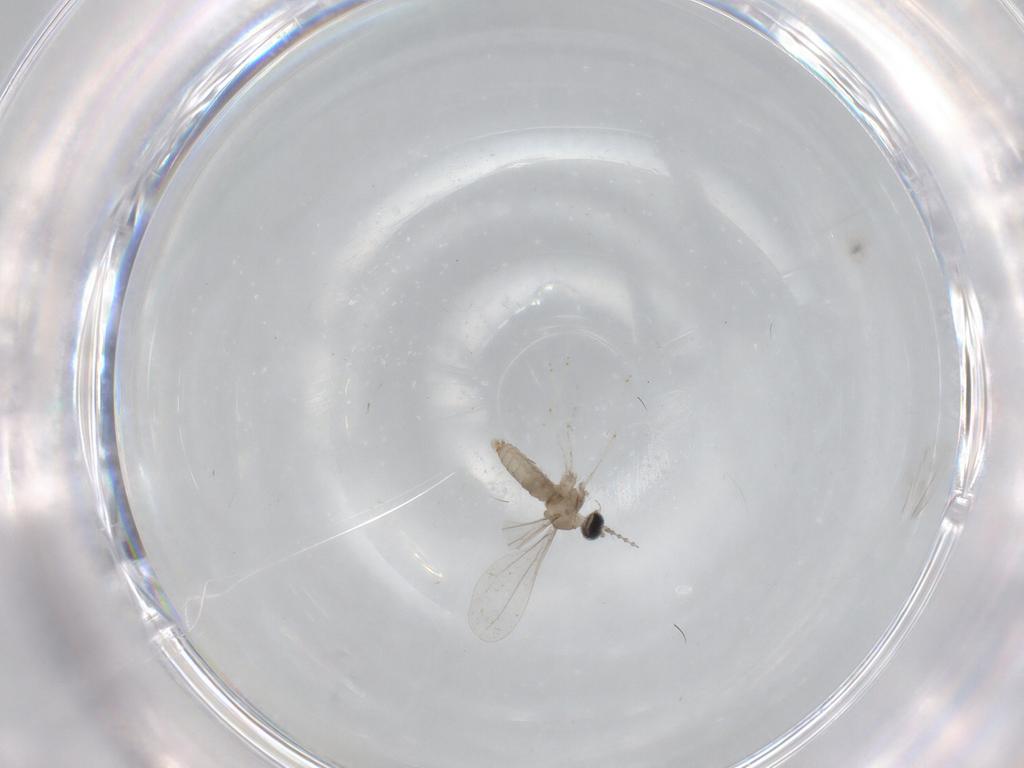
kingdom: Animalia
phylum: Arthropoda
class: Insecta
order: Diptera
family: Cecidomyiidae
